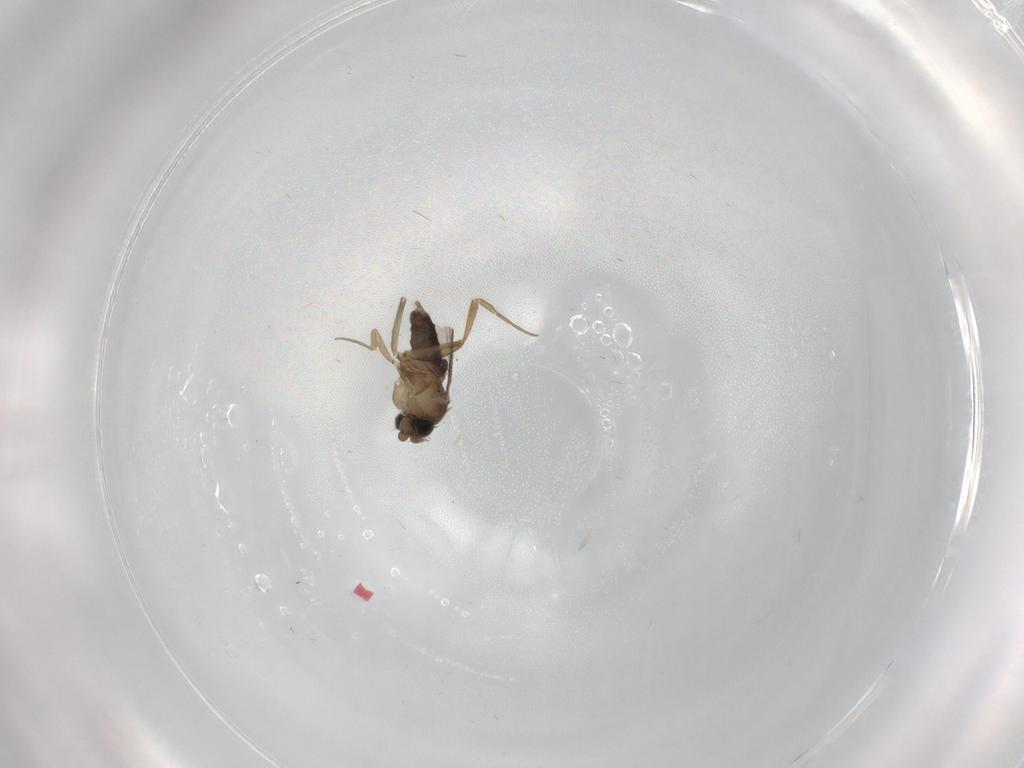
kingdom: Animalia
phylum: Arthropoda
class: Insecta
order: Diptera
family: Phoridae
